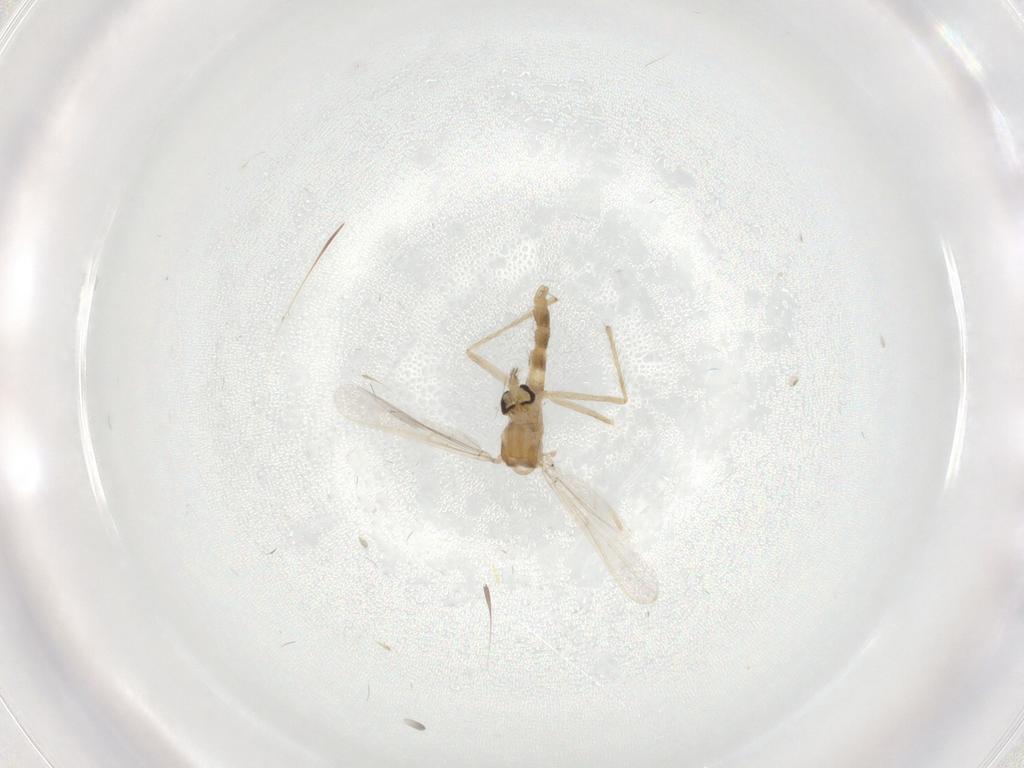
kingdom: Animalia
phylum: Arthropoda
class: Insecta
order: Diptera
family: Chironomidae
